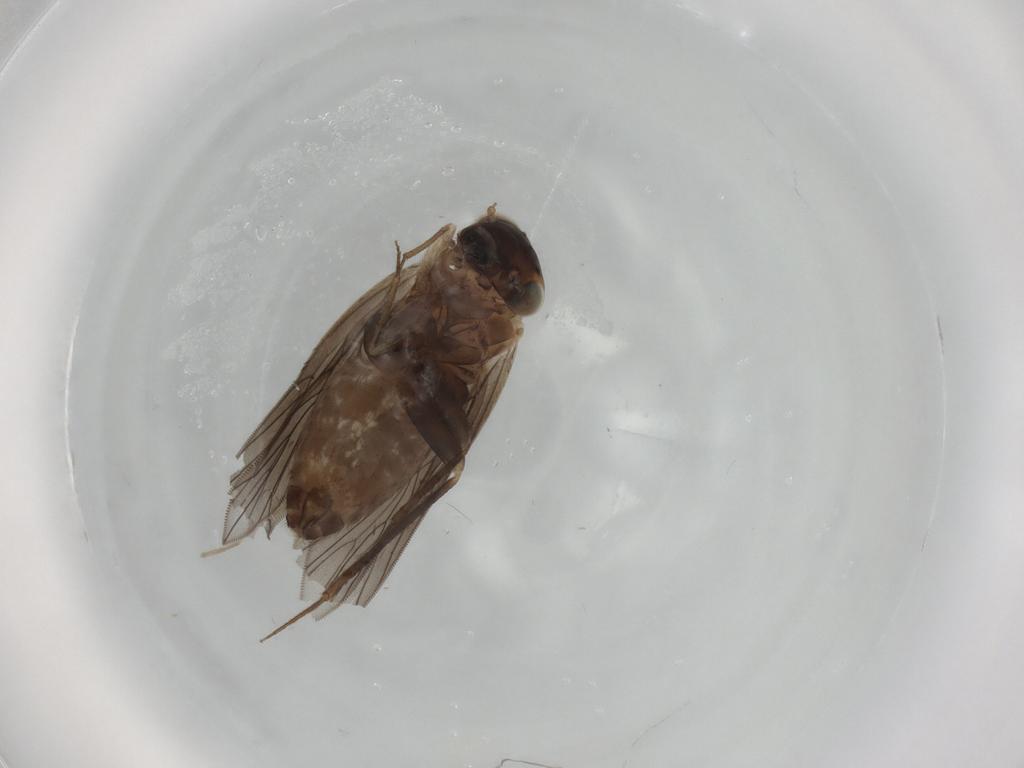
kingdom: Animalia
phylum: Arthropoda
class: Insecta
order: Psocodea
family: Lepidopsocidae
